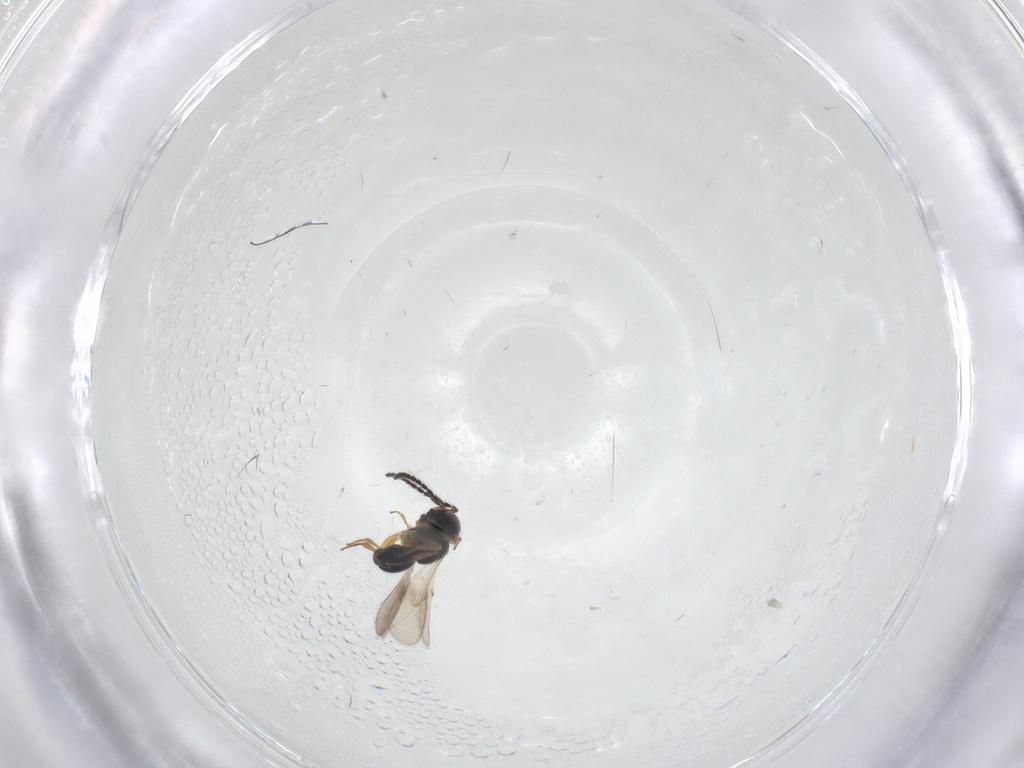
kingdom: Animalia
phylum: Arthropoda
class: Insecta
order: Hymenoptera
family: Scelionidae
